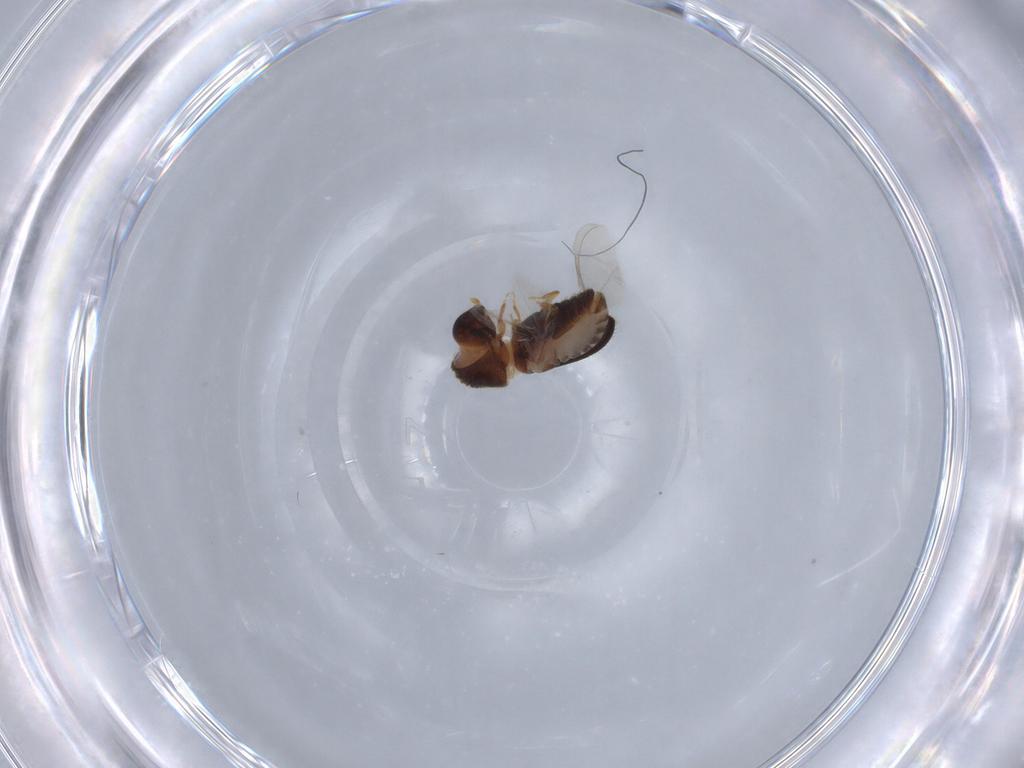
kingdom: Animalia
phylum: Arthropoda
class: Insecta
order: Coleoptera
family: Curculionidae
